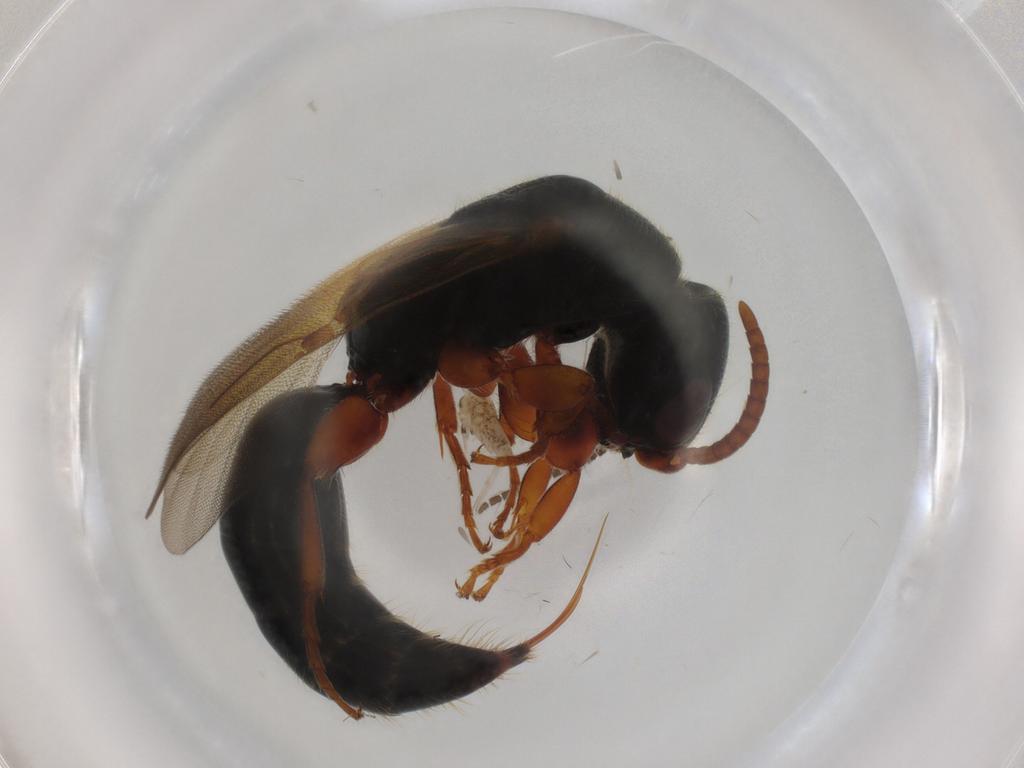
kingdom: Animalia
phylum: Arthropoda
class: Insecta
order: Hymenoptera
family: Bethylidae
